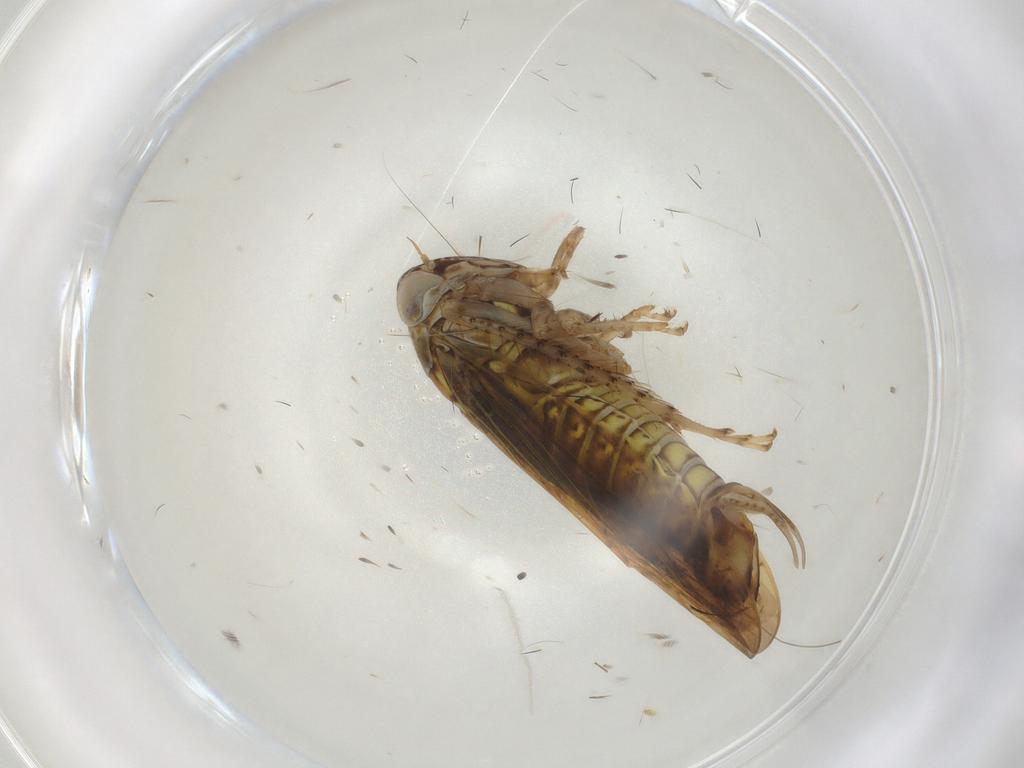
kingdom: Animalia
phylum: Arthropoda
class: Insecta
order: Hemiptera
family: Cicadellidae
